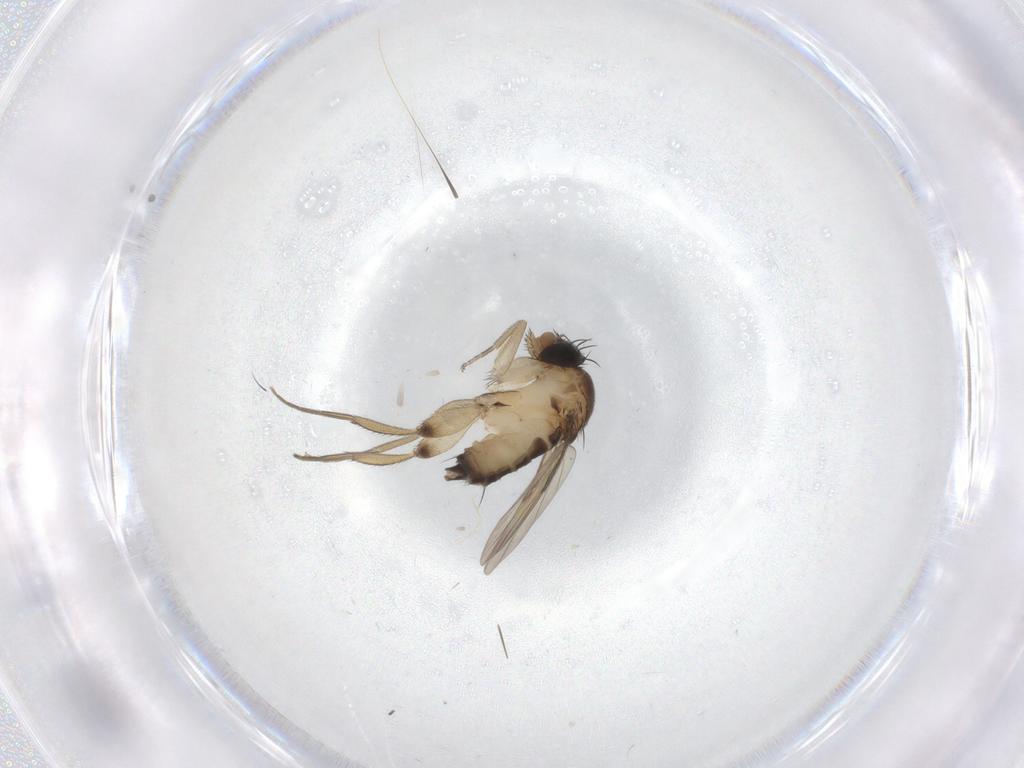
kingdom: Animalia
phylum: Arthropoda
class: Insecta
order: Diptera
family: Phoridae
